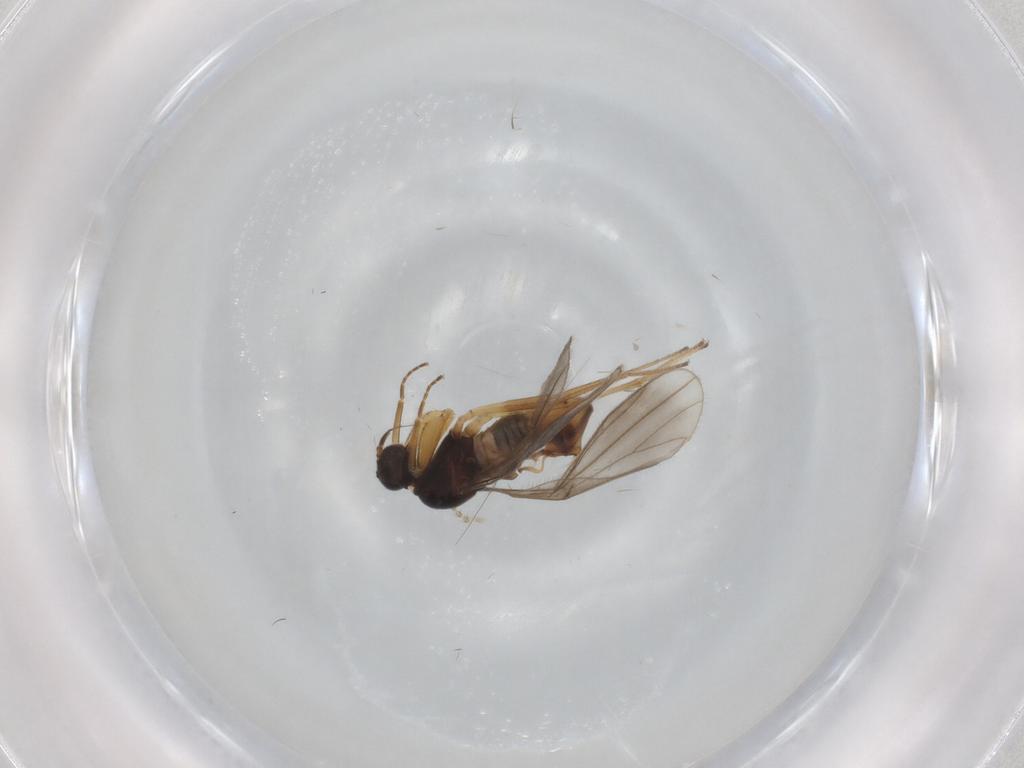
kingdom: Animalia
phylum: Arthropoda
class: Insecta
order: Diptera
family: Empididae
